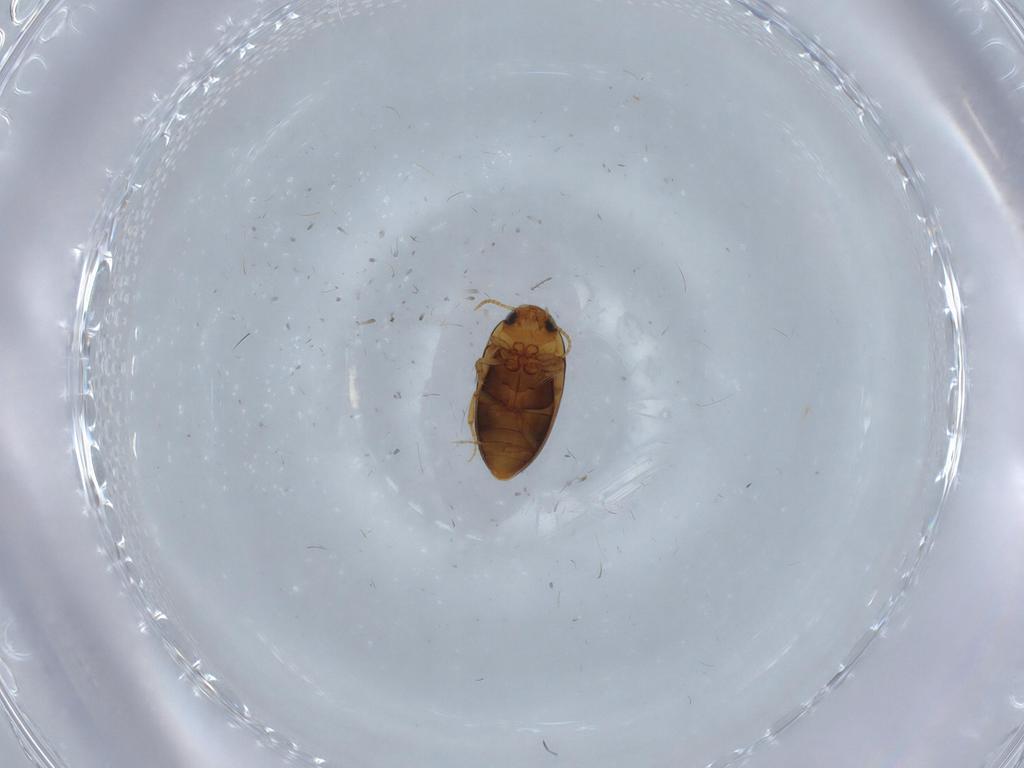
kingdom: Animalia
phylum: Arthropoda
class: Insecta
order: Coleoptera
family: Noteridae
